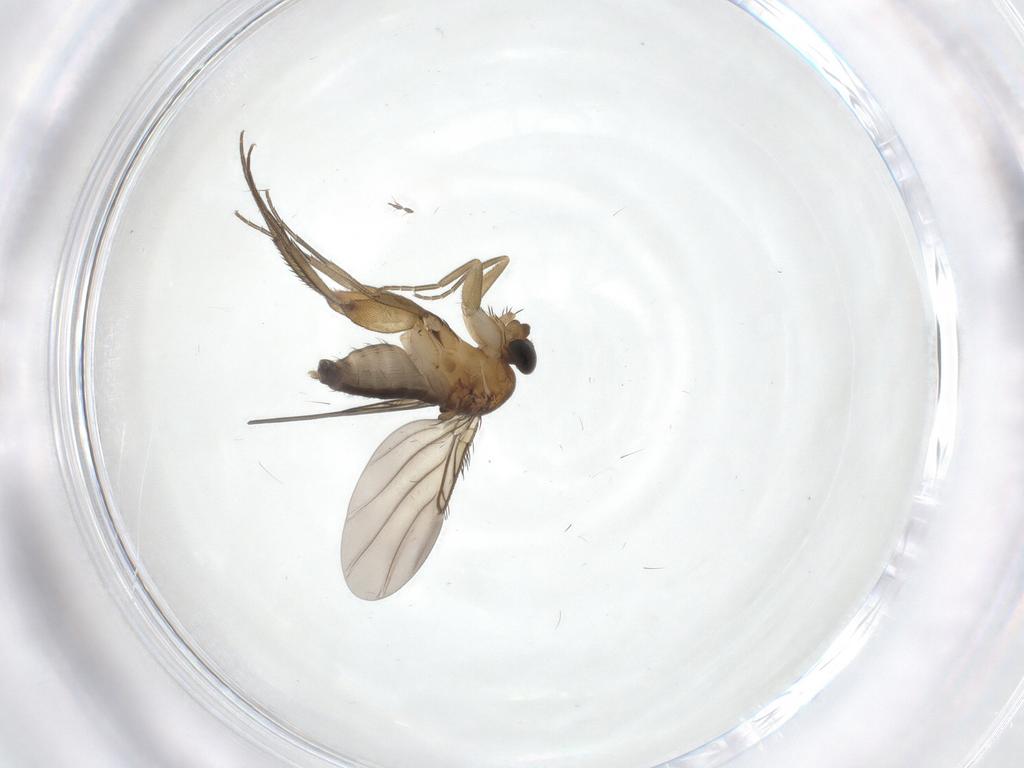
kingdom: Animalia
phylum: Arthropoda
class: Insecta
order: Diptera
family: Phoridae
